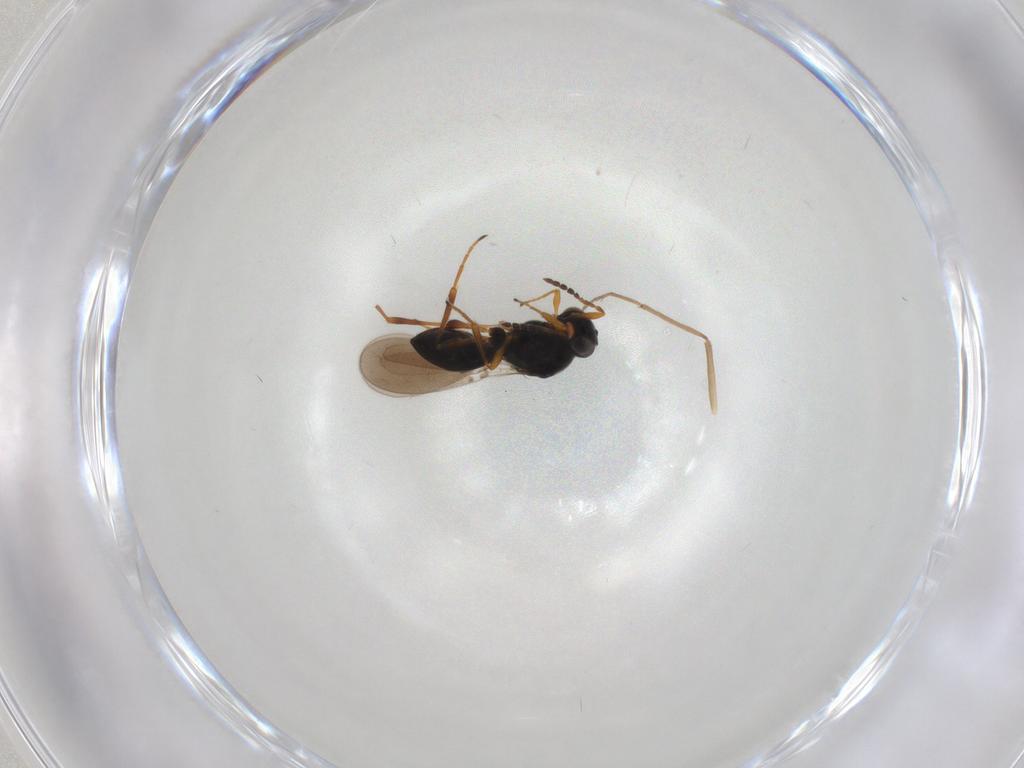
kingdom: Animalia
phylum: Arthropoda
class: Insecta
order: Hymenoptera
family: Platygastridae
